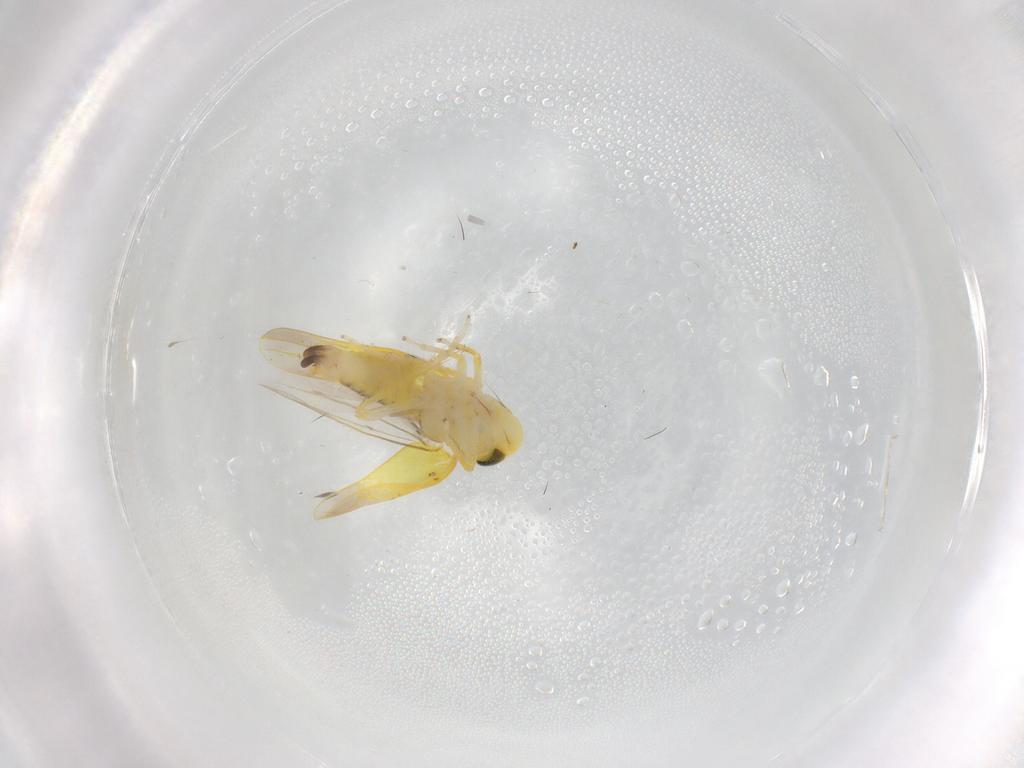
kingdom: Animalia
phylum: Arthropoda
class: Insecta
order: Hemiptera
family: Cicadellidae
